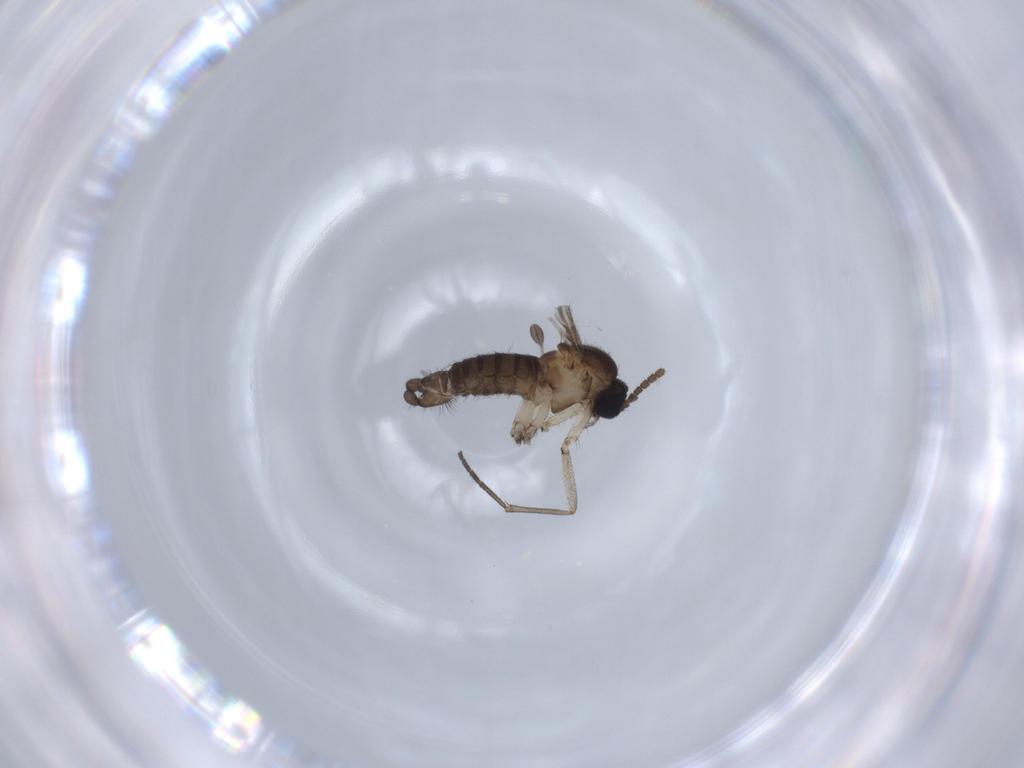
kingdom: Animalia
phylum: Arthropoda
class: Insecta
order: Diptera
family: Sciaridae
